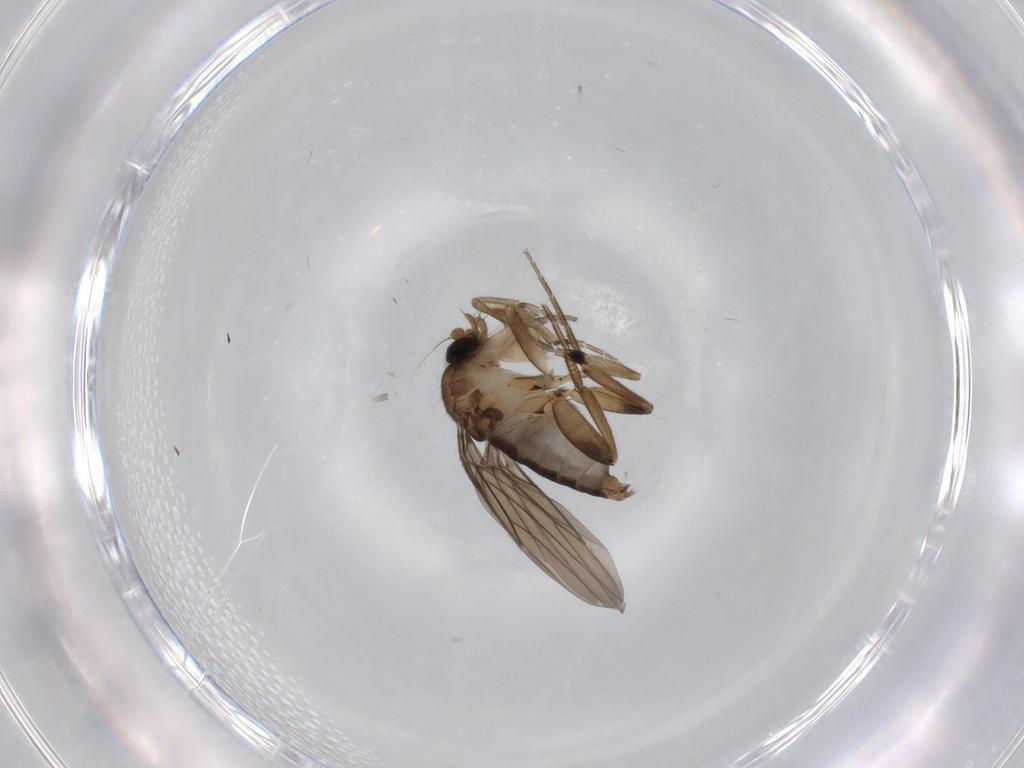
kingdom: Animalia
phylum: Arthropoda
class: Insecta
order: Diptera
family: Phoridae
